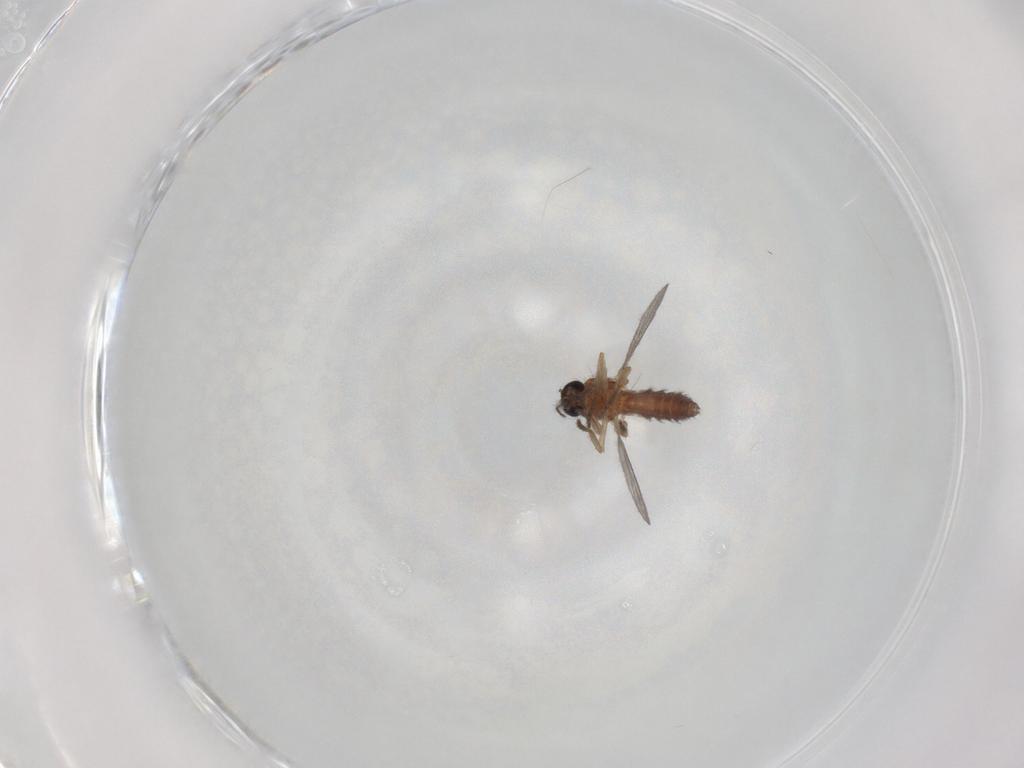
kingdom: Animalia
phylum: Arthropoda
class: Insecta
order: Diptera
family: Ceratopogonidae
